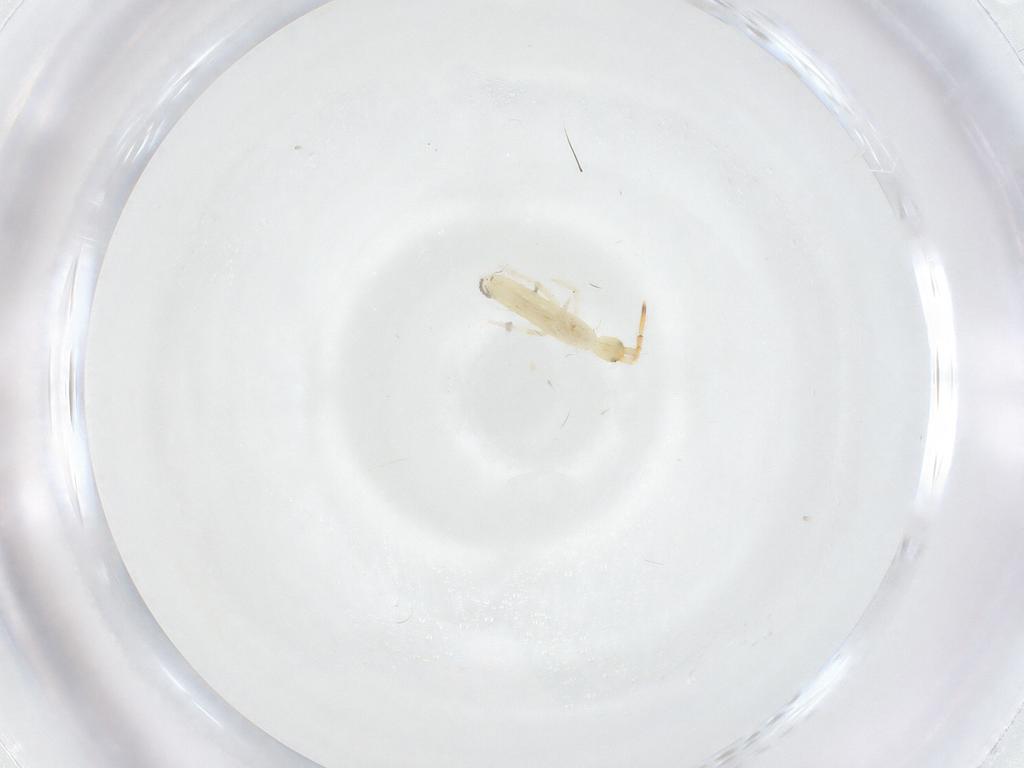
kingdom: Animalia
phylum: Arthropoda
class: Collembola
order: Entomobryomorpha
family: Entomobryidae
